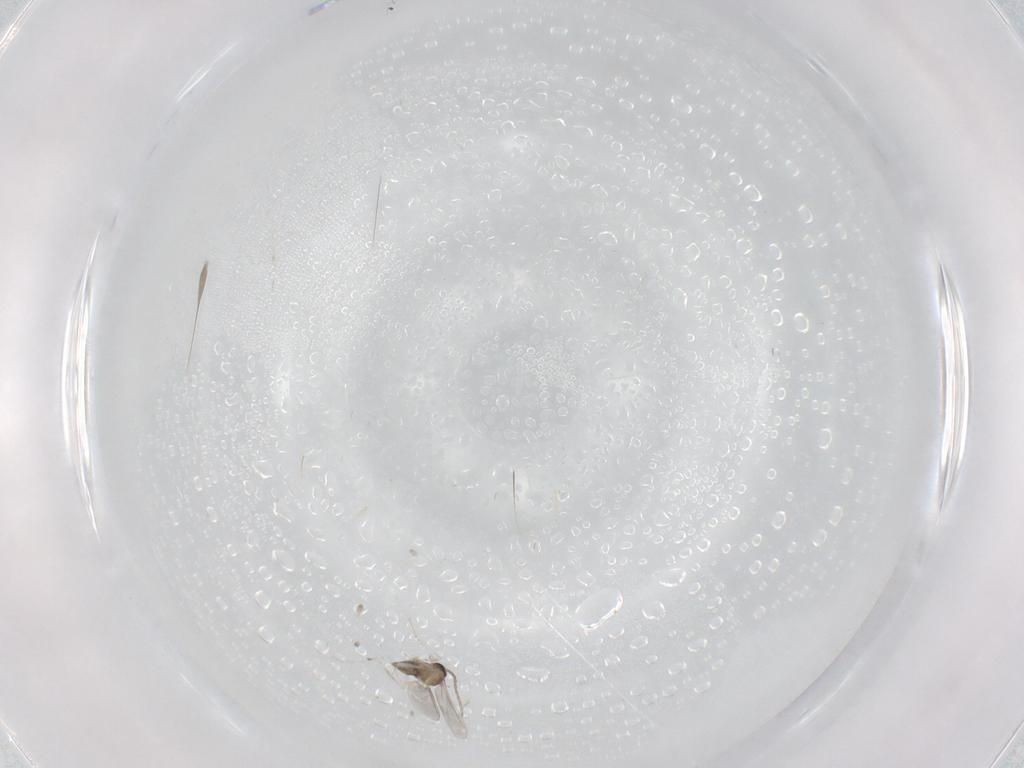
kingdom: Animalia
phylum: Arthropoda
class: Insecta
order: Diptera
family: Cecidomyiidae
